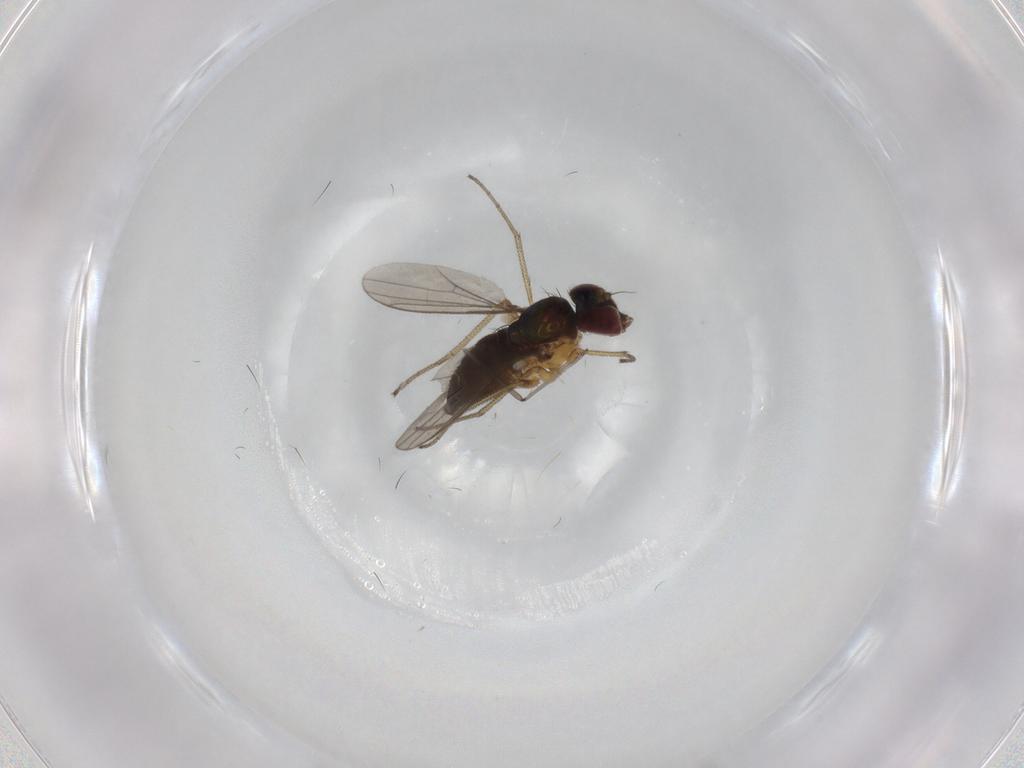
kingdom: Animalia
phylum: Arthropoda
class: Insecta
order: Diptera
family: Dolichopodidae
